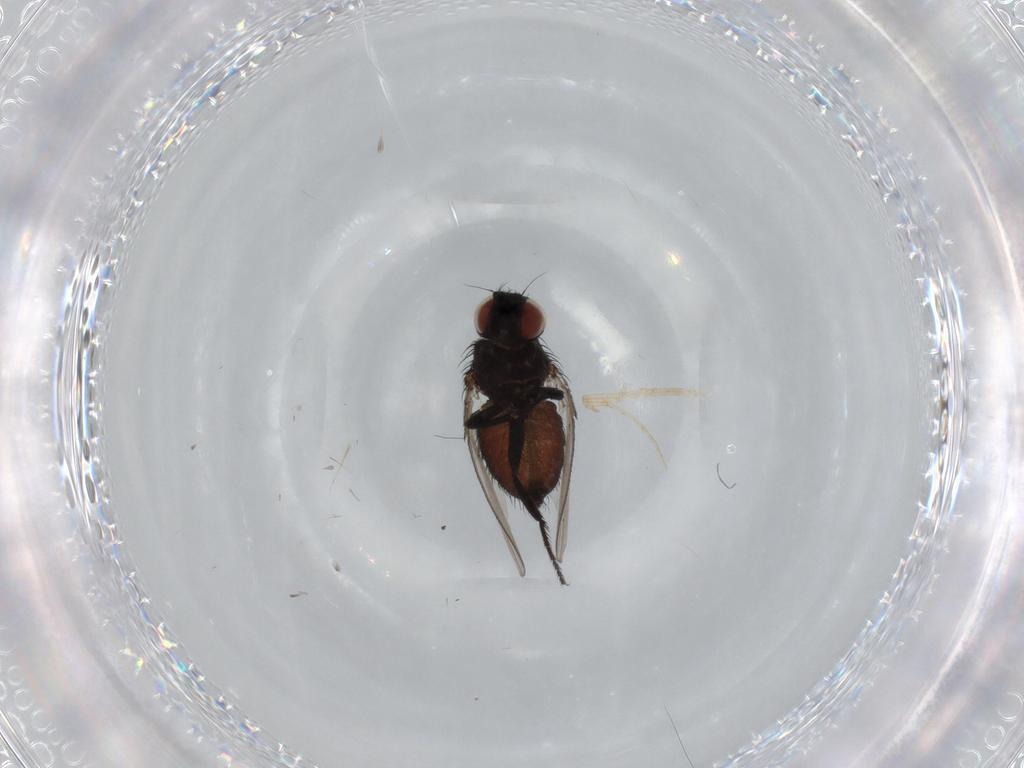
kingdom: Animalia
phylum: Arthropoda
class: Insecta
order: Diptera
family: Milichiidae
